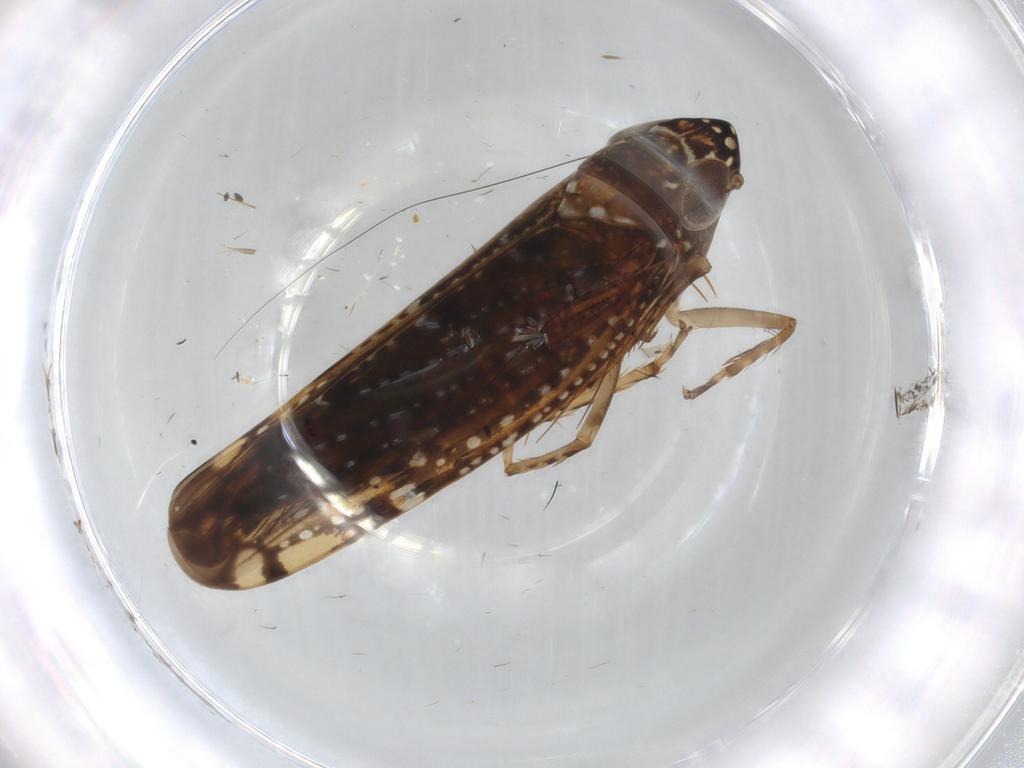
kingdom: Animalia
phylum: Arthropoda
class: Insecta
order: Hemiptera
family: Cicadellidae
